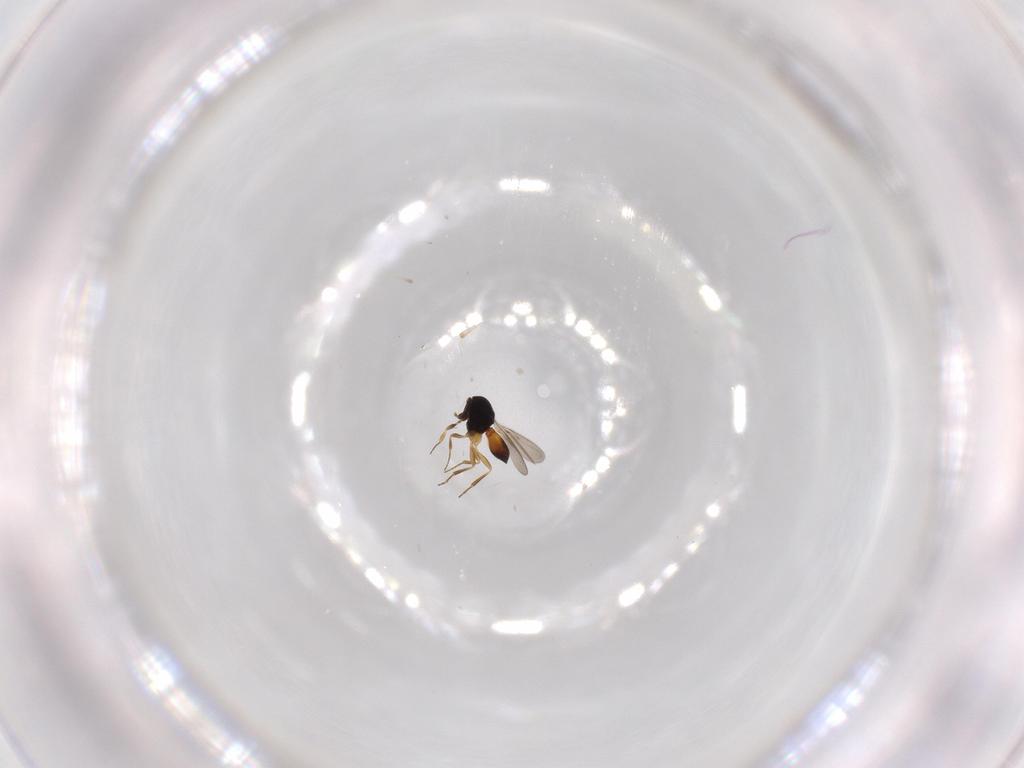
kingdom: Animalia
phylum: Arthropoda
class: Insecta
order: Hymenoptera
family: Scelionidae
